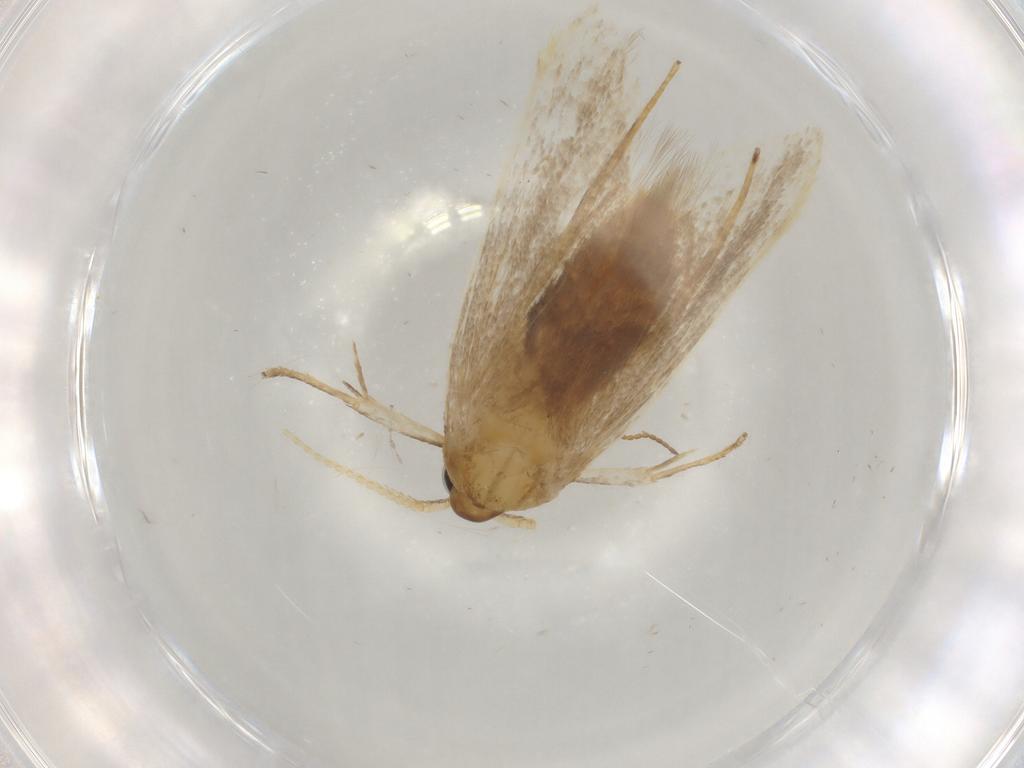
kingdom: Animalia
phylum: Arthropoda
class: Insecta
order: Lepidoptera
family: Lecithoceridae
